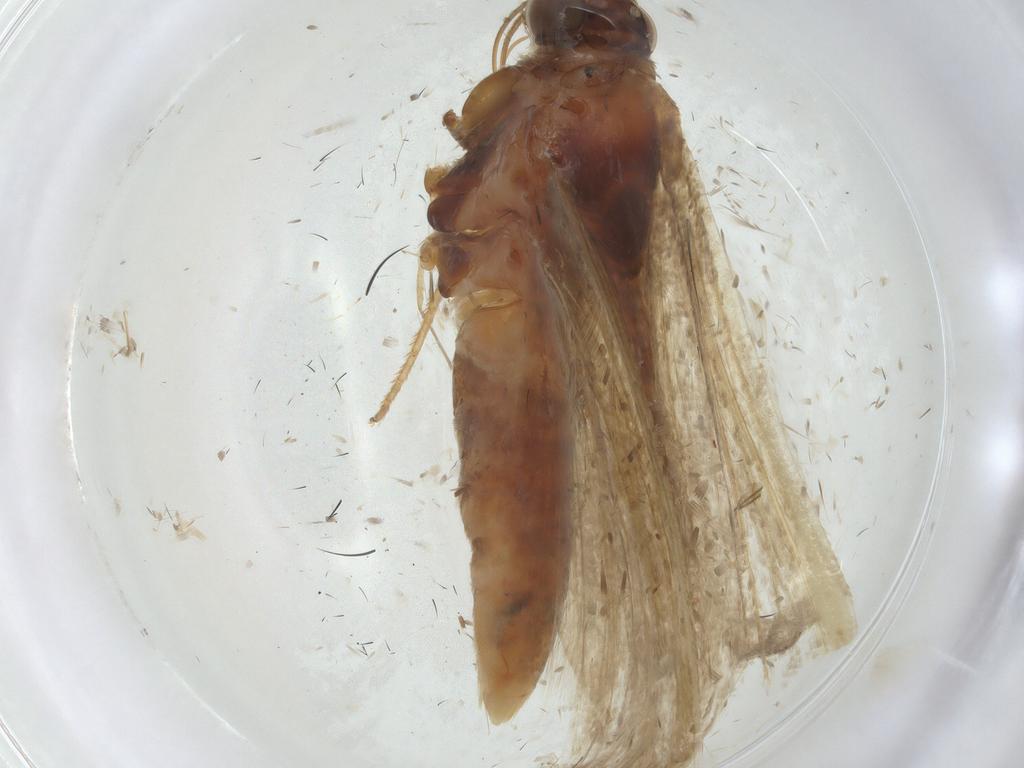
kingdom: Animalia
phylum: Arthropoda
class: Insecta
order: Lepidoptera
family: Pyralidae
